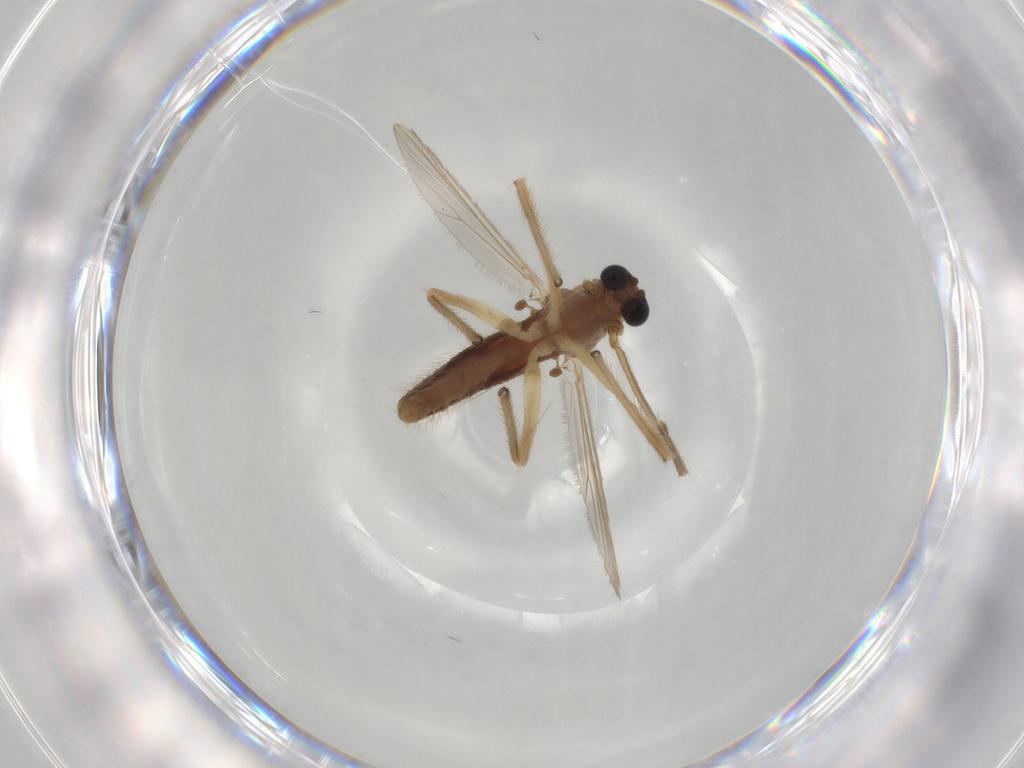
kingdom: Animalia
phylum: Arthropoda
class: Insecta
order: Diptera
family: Chironomidae
